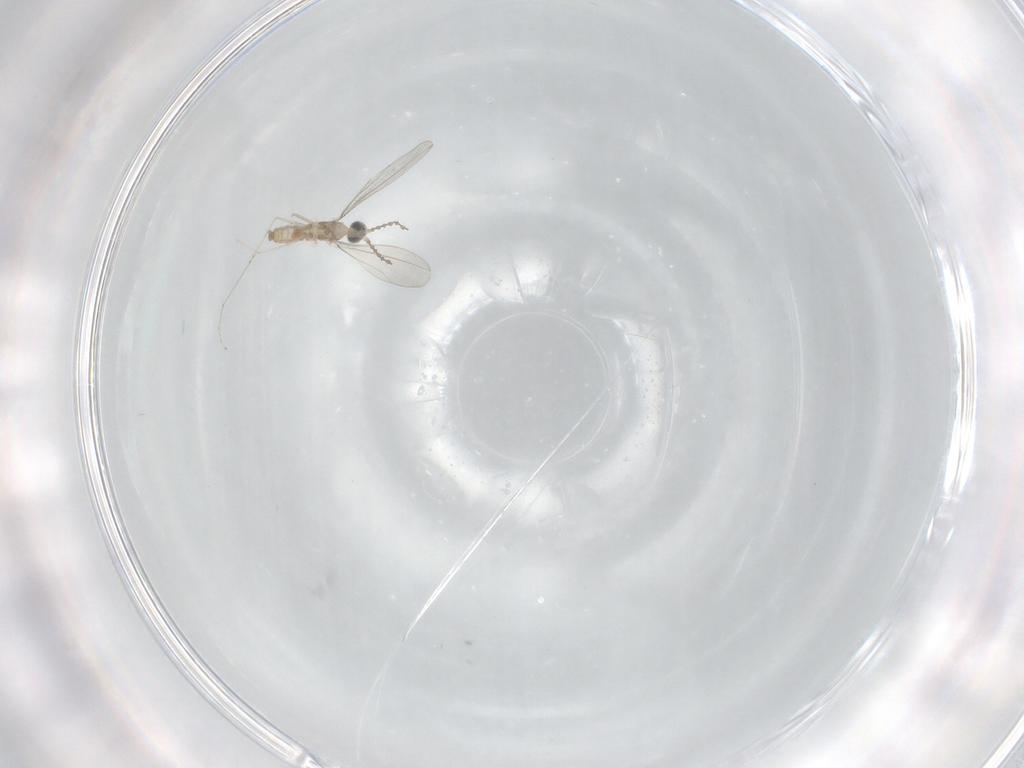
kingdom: Animalia
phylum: Arthropoda
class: Insecta
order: Diptera
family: Cecidomyiidae
